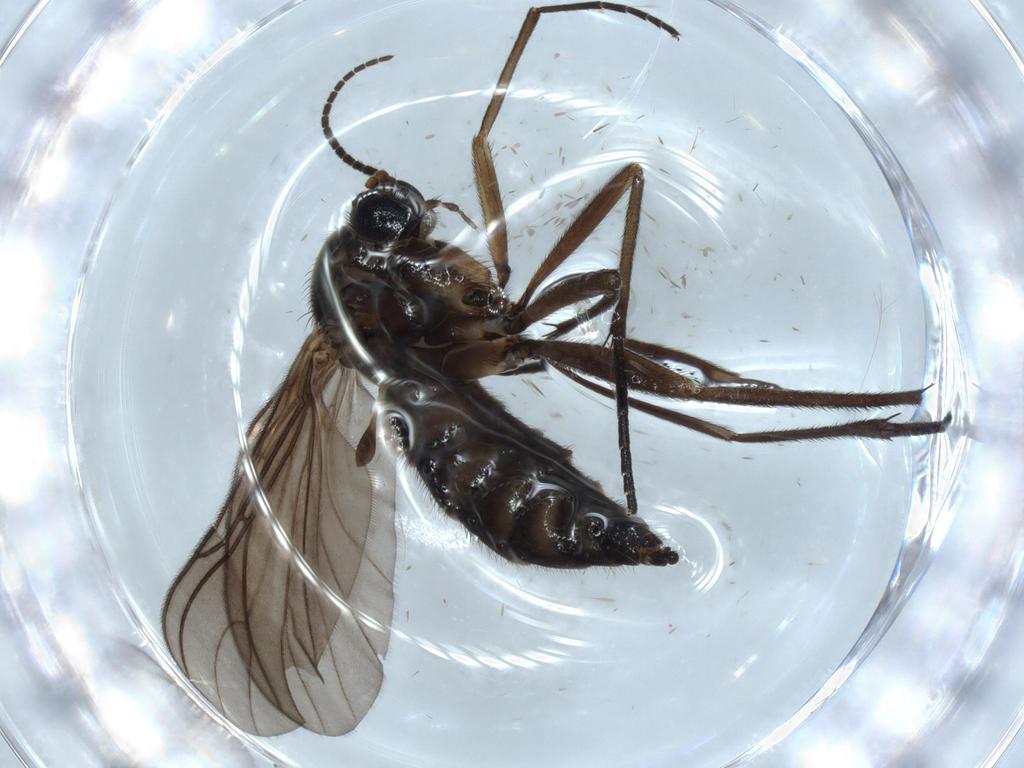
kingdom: Animalia
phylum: Arthropoda
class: Insecta
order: Diptera
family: Sciaridae
